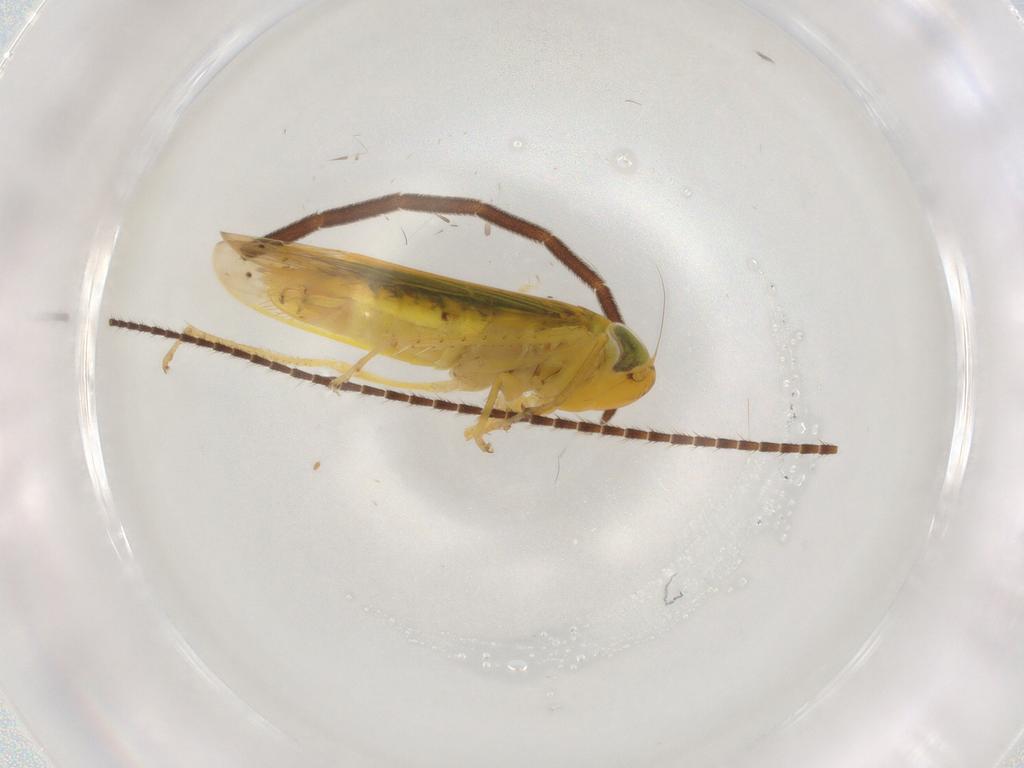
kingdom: Animalia
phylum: Arthropoda
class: Insecta
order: Hemiptera
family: Cicadellidae
